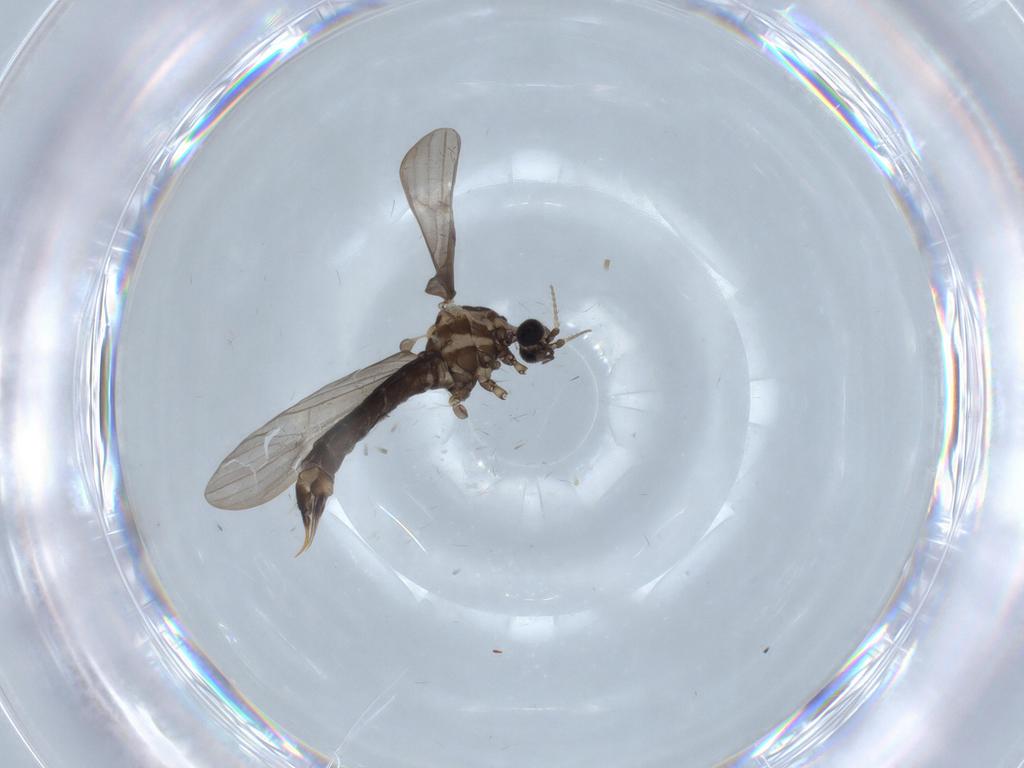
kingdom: Animalia
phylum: Arthropoda
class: Insecta
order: Diptera
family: Cecidomyiidae
